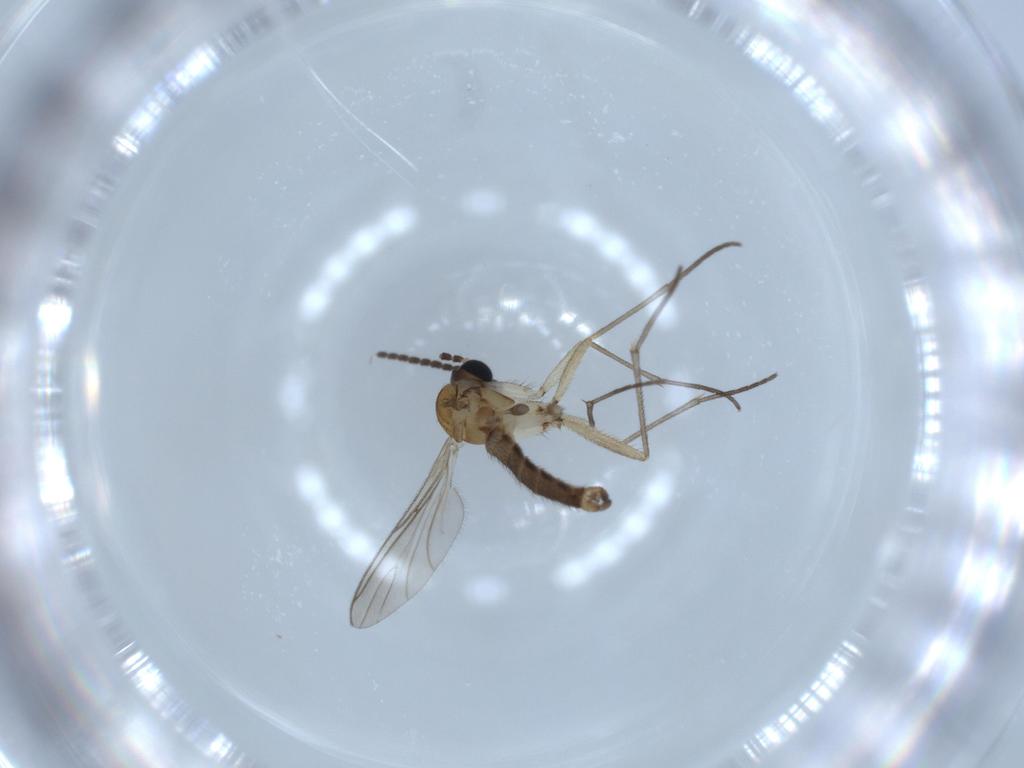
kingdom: Animalia
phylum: Arthropoda
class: Insecta
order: Diptera
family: Sciaridae
